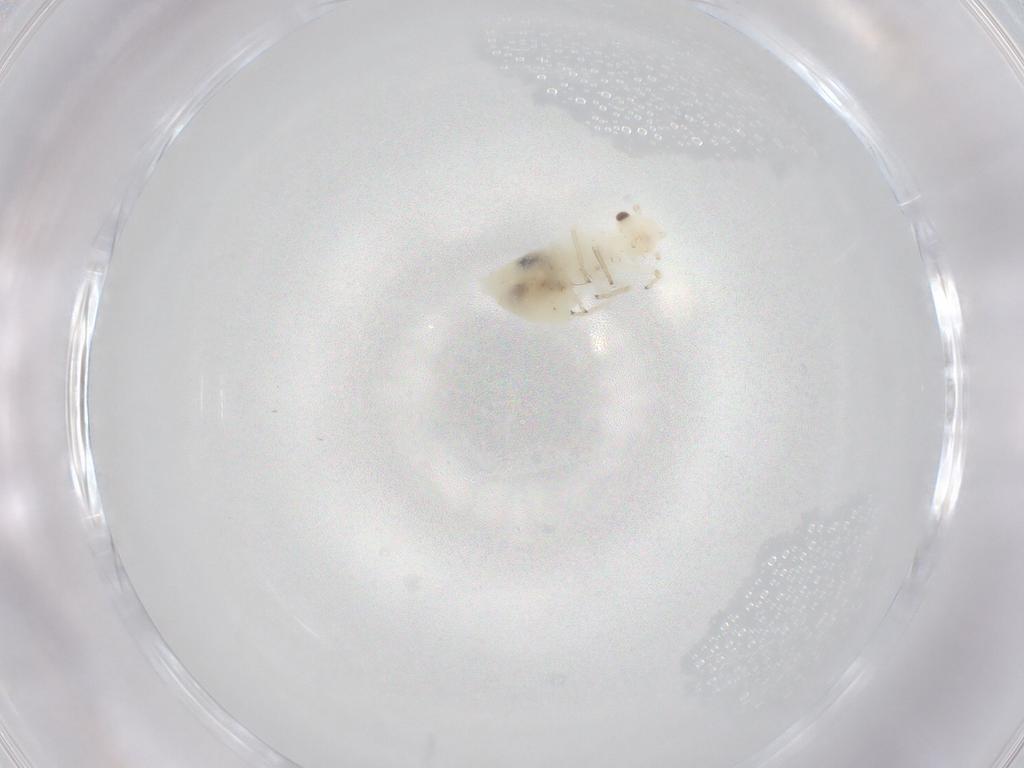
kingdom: Animalia
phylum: Arthropoda
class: Insecta
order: Psocodea
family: Caeciliusidae
